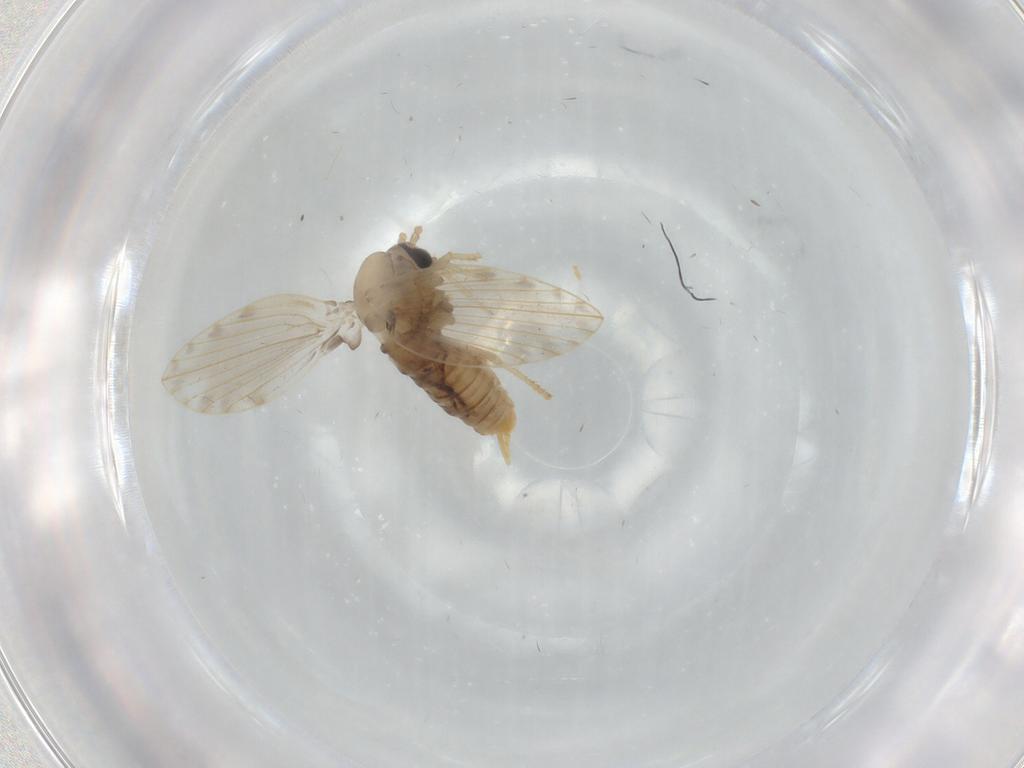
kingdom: Animalia
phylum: Arthropoda
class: Insecta
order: Diptera
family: Psychodidae
